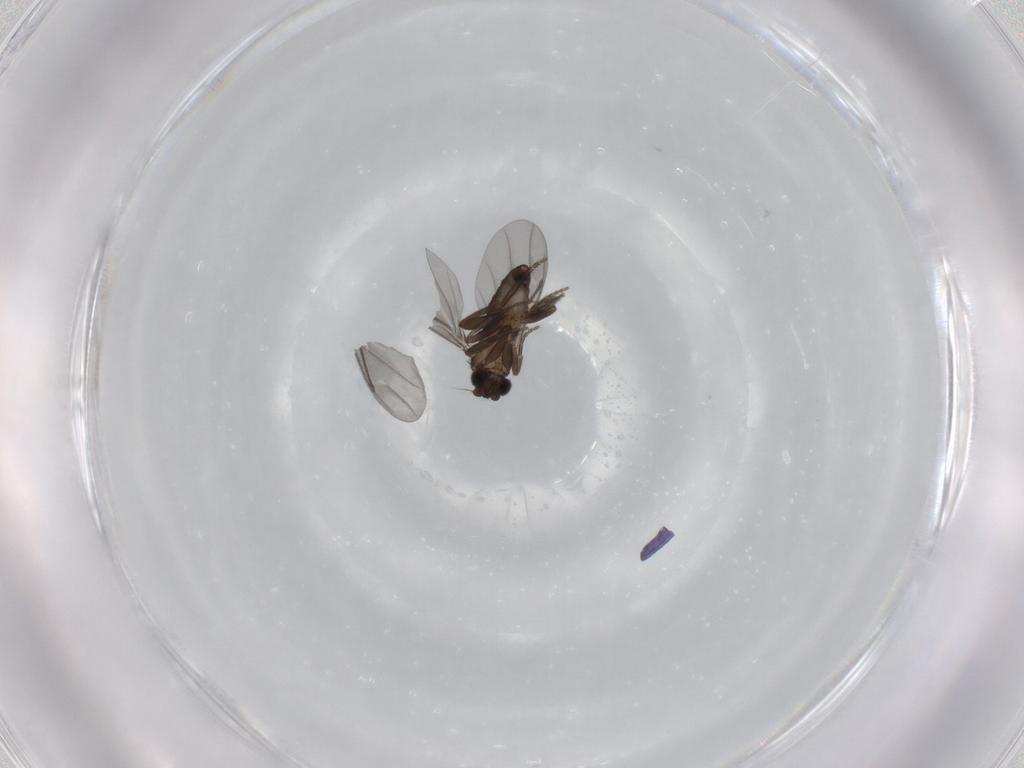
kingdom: Animalia
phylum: Arthropoda
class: Insecta
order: Diptera
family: Phoridae
